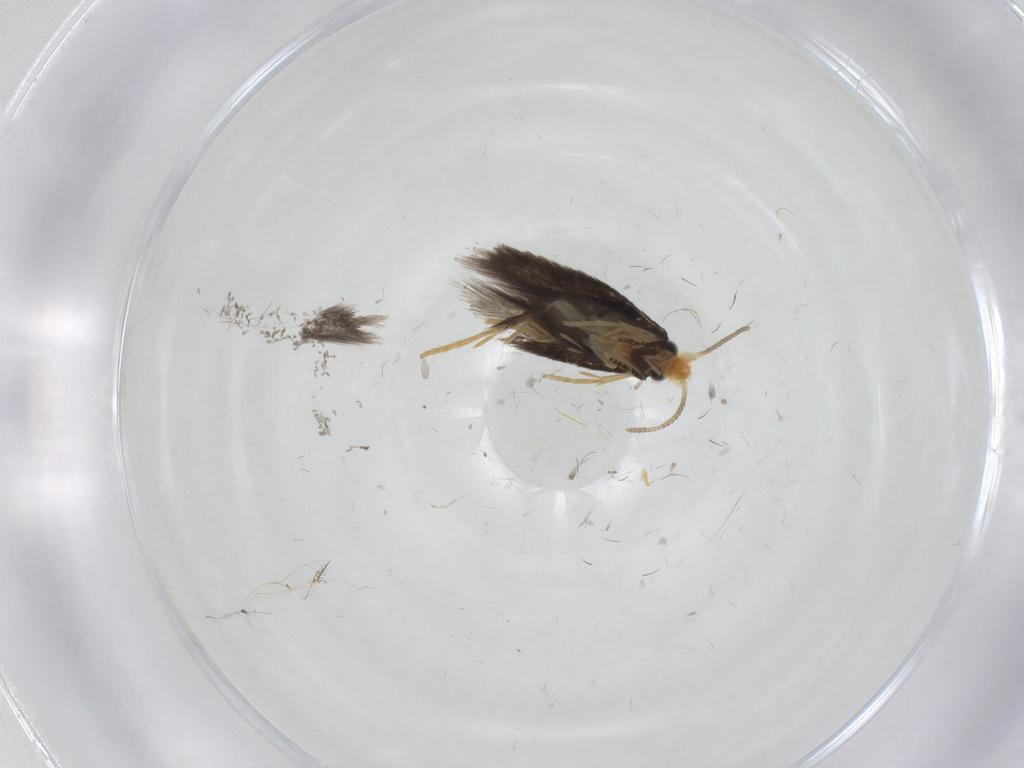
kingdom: Animalia
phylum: Arthropoda
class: Insecta
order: Lepidoptera
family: Nepticulidae
